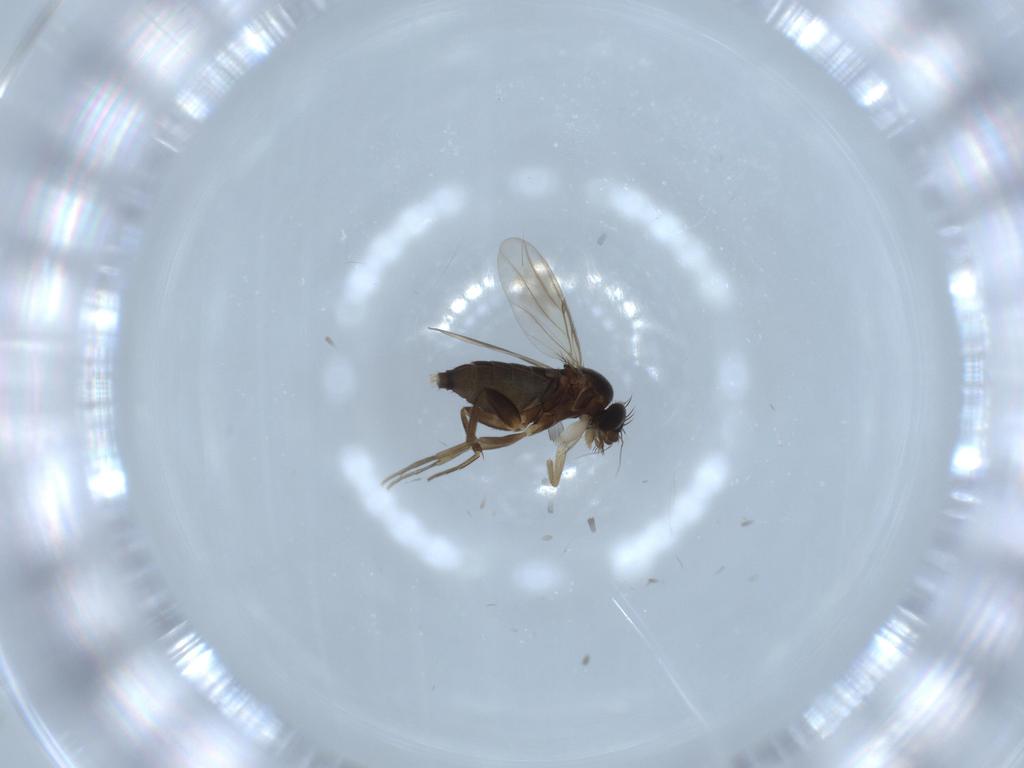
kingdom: Animalia
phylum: Arthropoda
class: Insecta
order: Diptera
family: Phoridae
